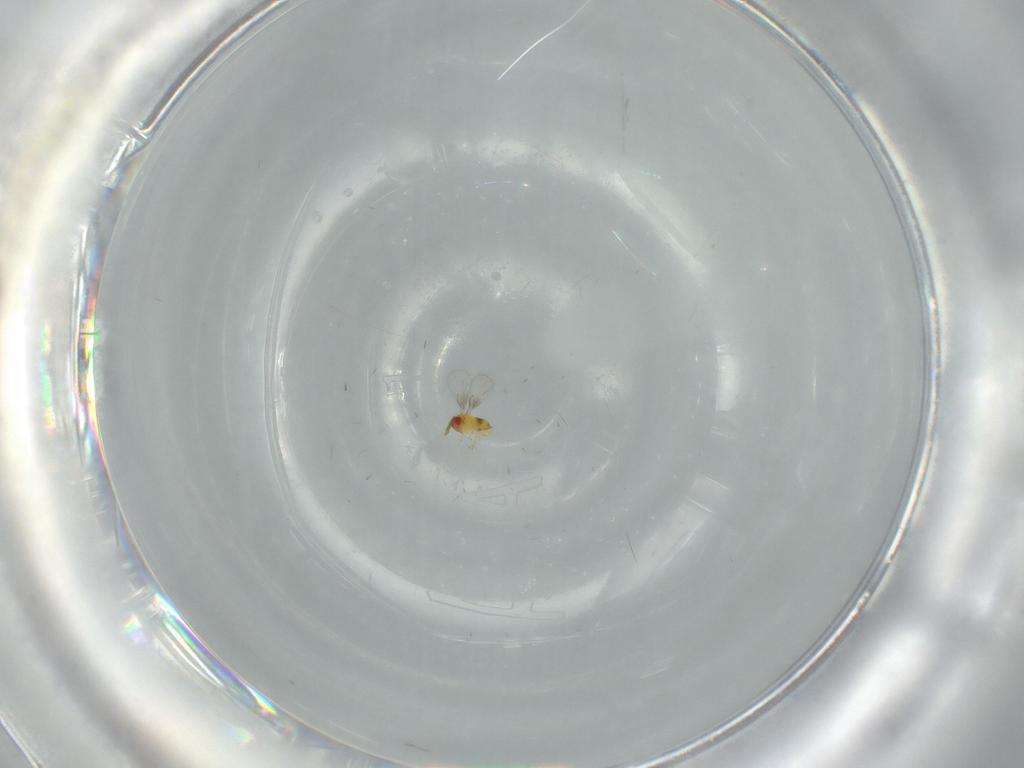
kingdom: Animalia
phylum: Arthropoda
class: Insecta
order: Hymenoptera
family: Trichogrammatidae
